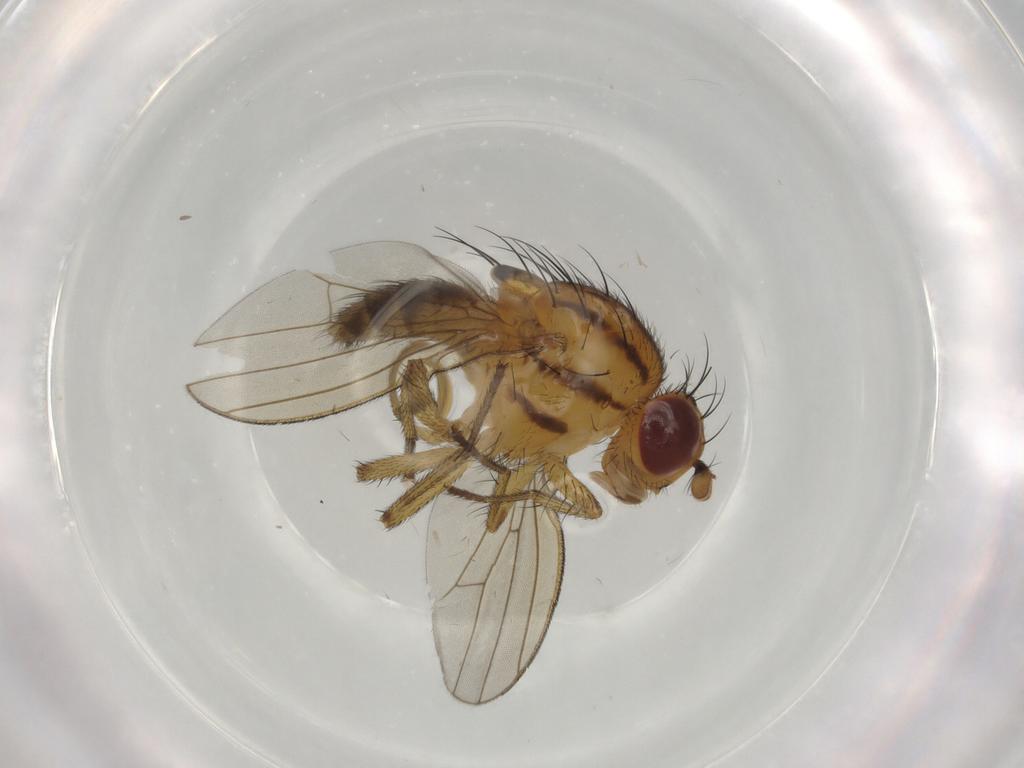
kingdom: Animalia
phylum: Arthropoda
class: Insecta
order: Diptera
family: Lauxaniidae
